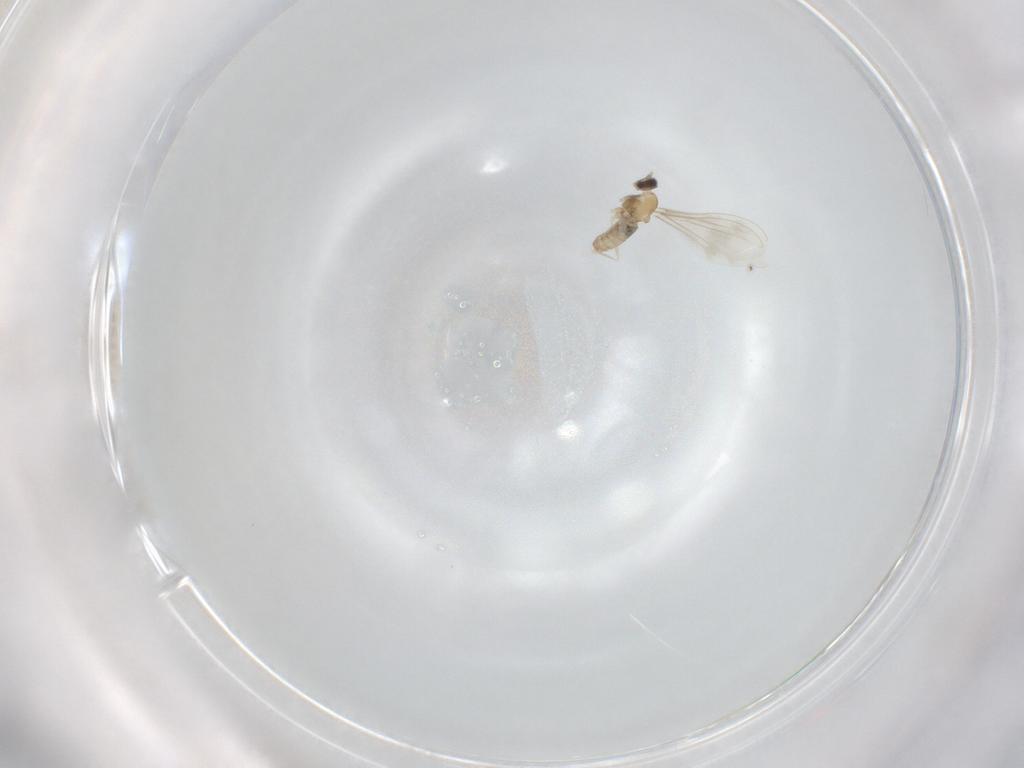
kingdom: Animalia
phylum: Arthropoda
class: Insecta
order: Diptera
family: Cecidomyiidae
